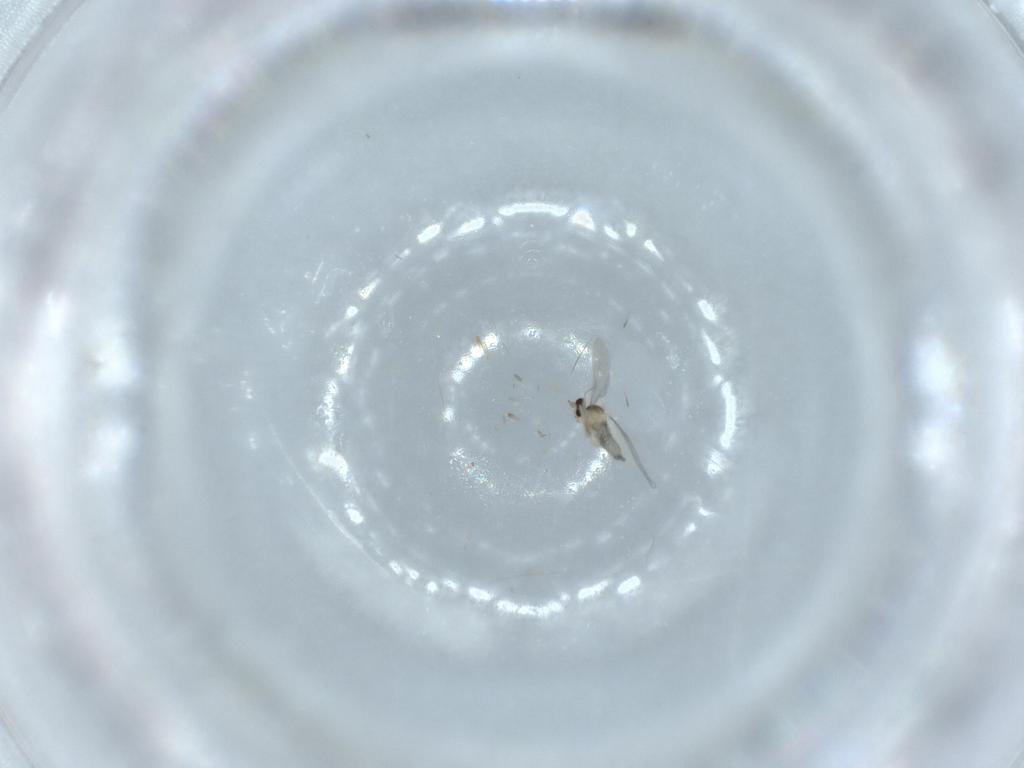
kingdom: Animalia
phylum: Arthropoda
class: Insecta
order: Diptera
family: Cecidomyiidae
